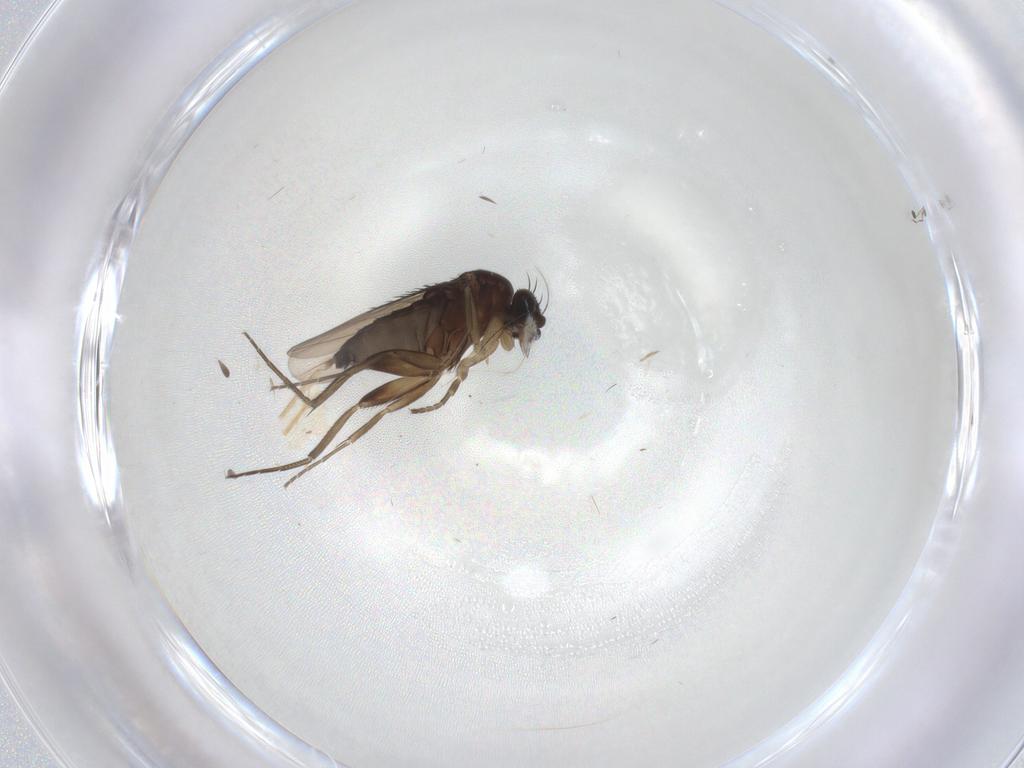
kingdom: Animalia
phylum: Arthropoda
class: Insecta
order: Diptera
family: Phoridae
